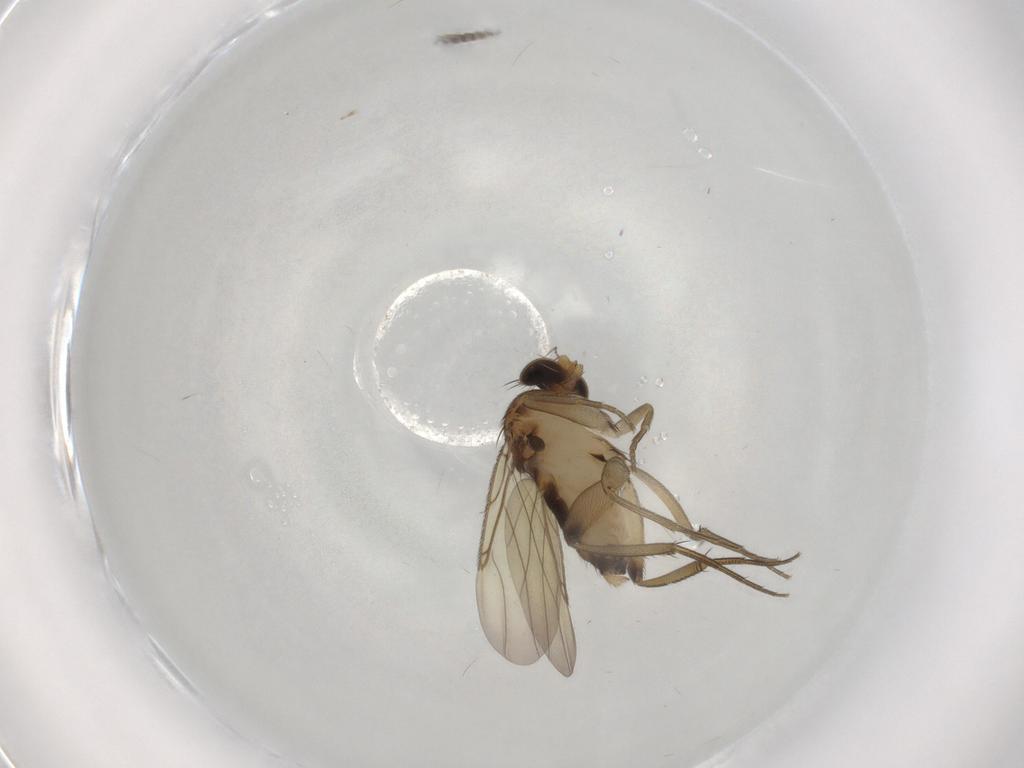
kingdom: Animalia
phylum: Arthropoda
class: Insecta
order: Diptera
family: Phoridae
